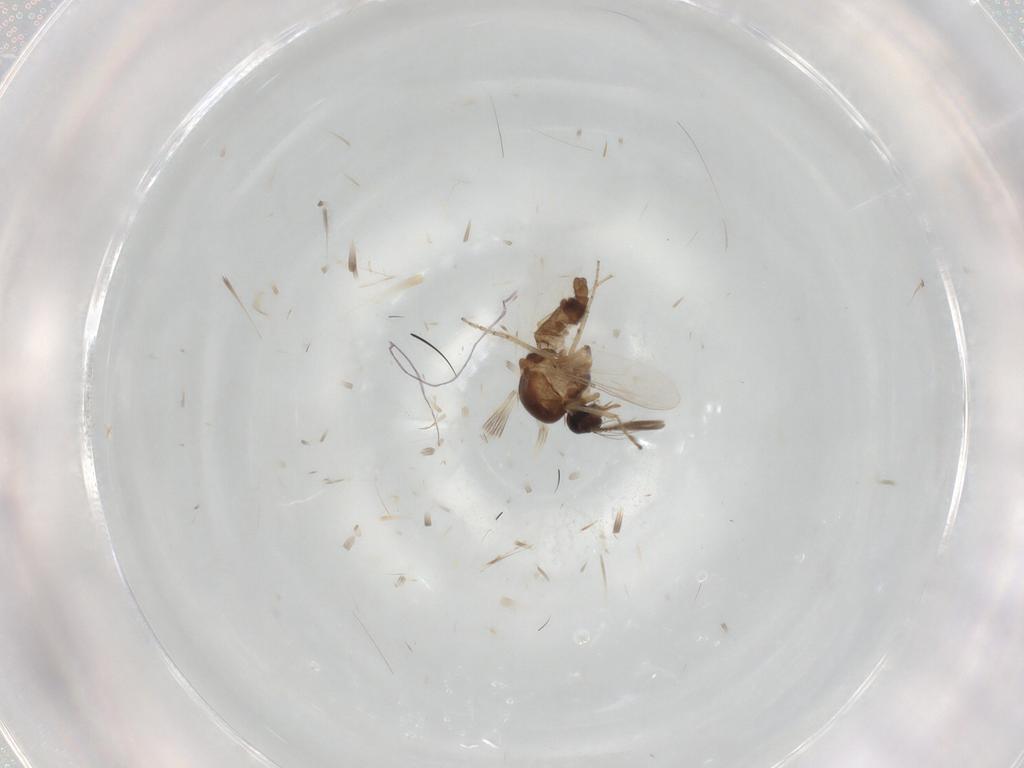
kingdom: Animalia
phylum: Arthropoda
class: Insecta
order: Diptera
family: Ceratopogonidae
